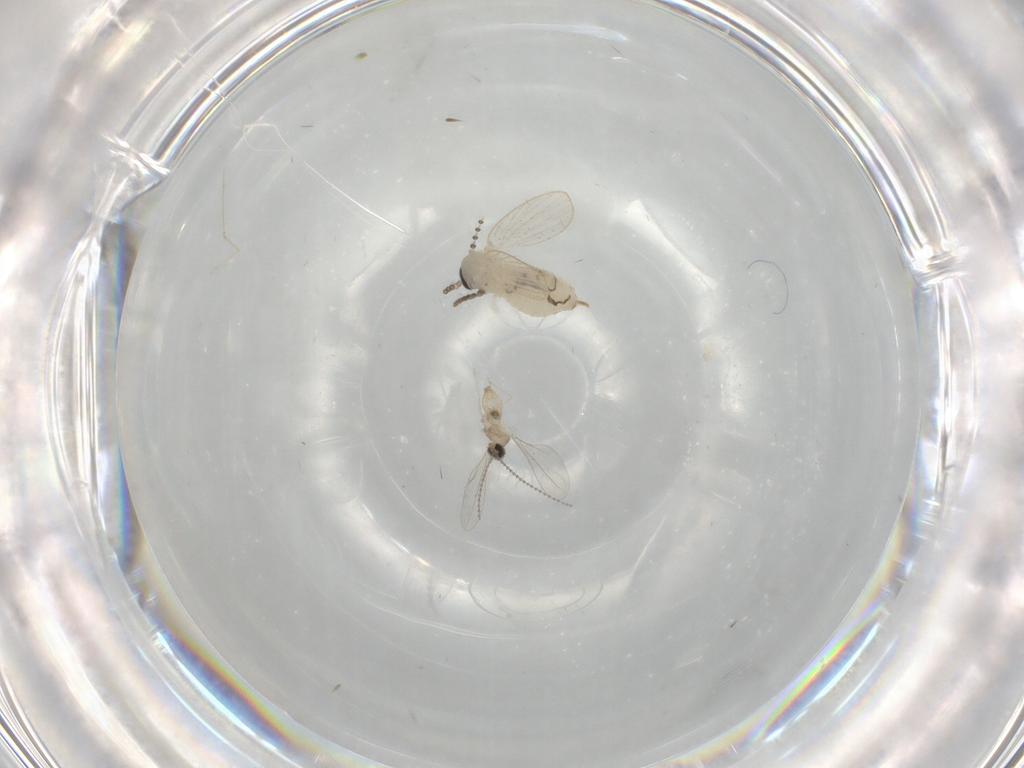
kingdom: Animalia
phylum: Arthropoda
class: Insecta
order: Diptera
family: Psychodidae
